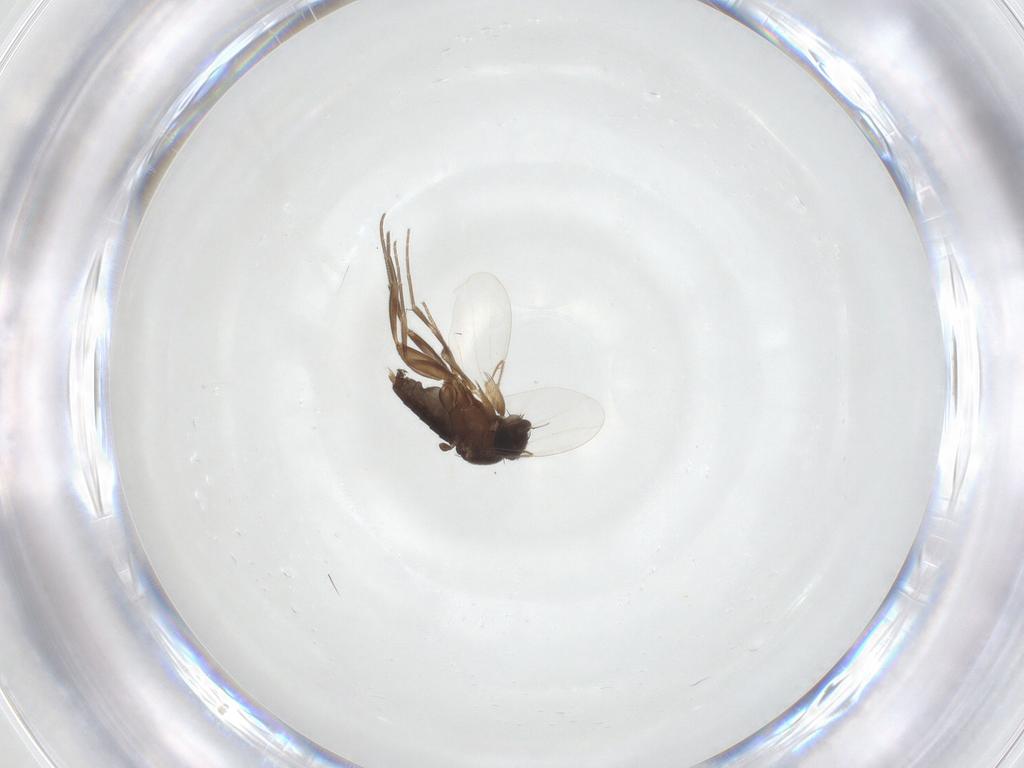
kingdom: Animalia
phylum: Arthropoda
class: Insecta
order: Diptera
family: Phoridae
